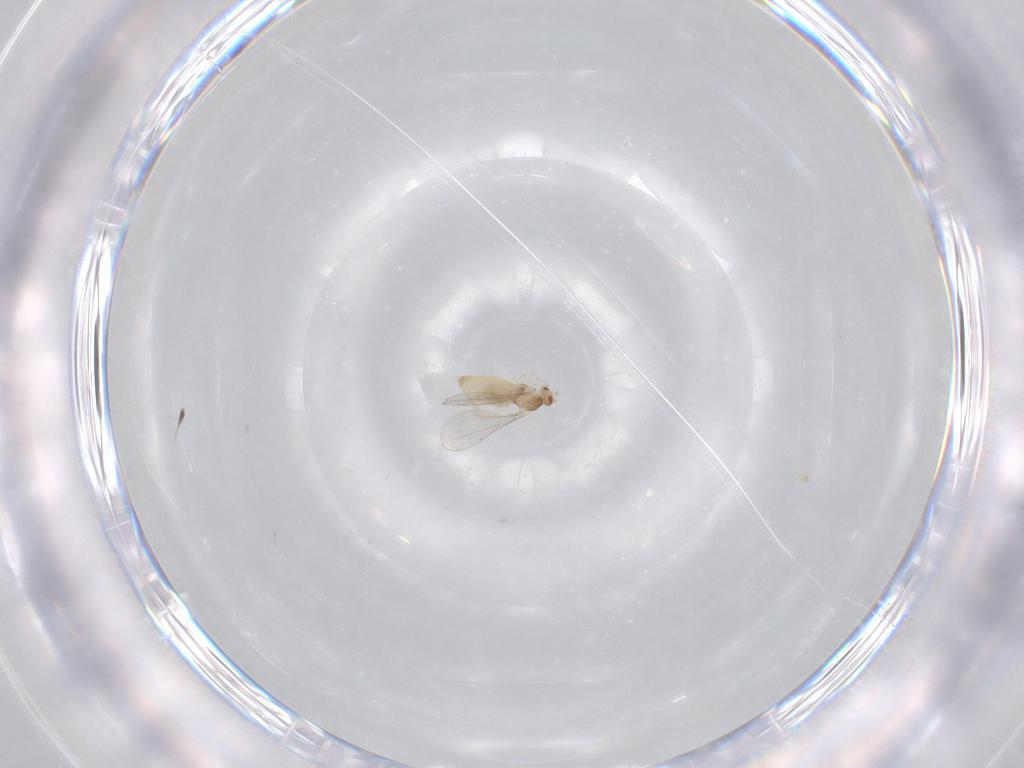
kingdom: Animalia
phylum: Arthropoda
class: Insecta
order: Diptera
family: Cecidomyiidae
